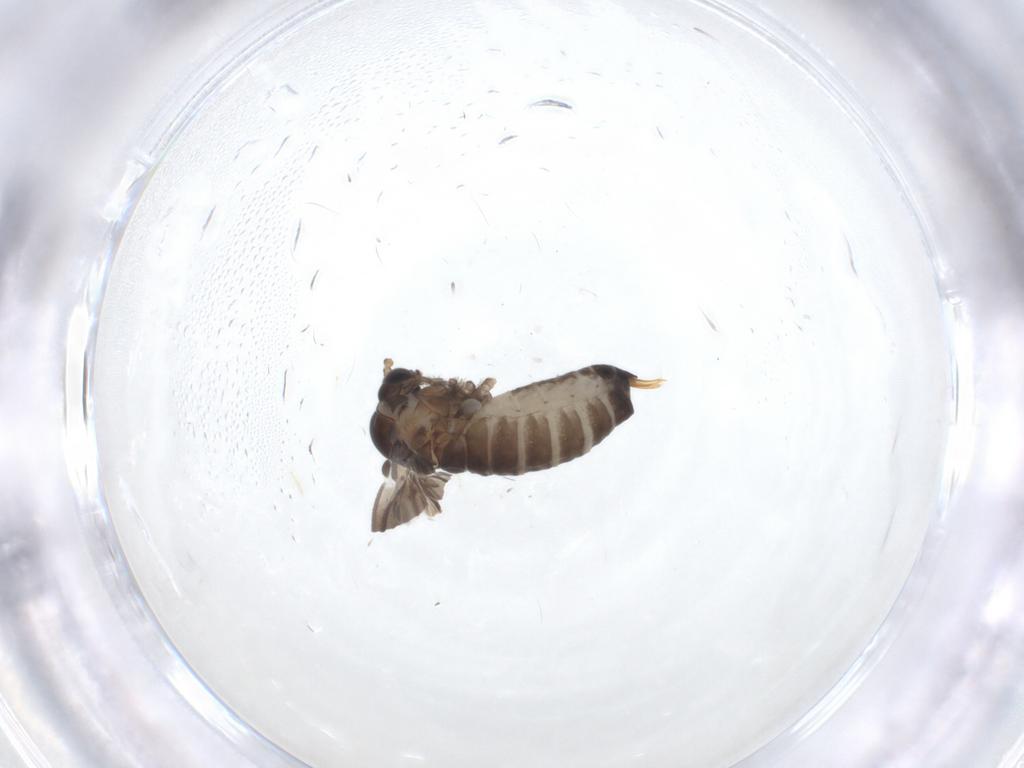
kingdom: Animalia
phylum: Arthropoda
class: Insecta
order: Diptera
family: Psychodidae
